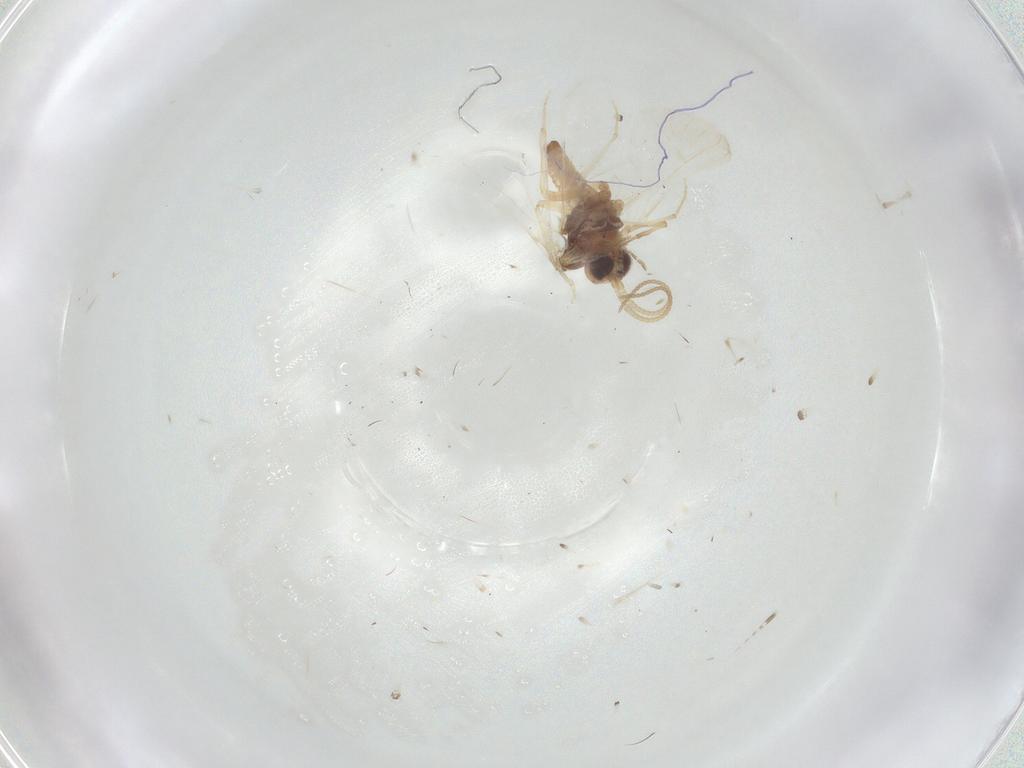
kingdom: Animalia
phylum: Arthropoda
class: Insecta
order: Neuroptera
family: Coniopterygidae
